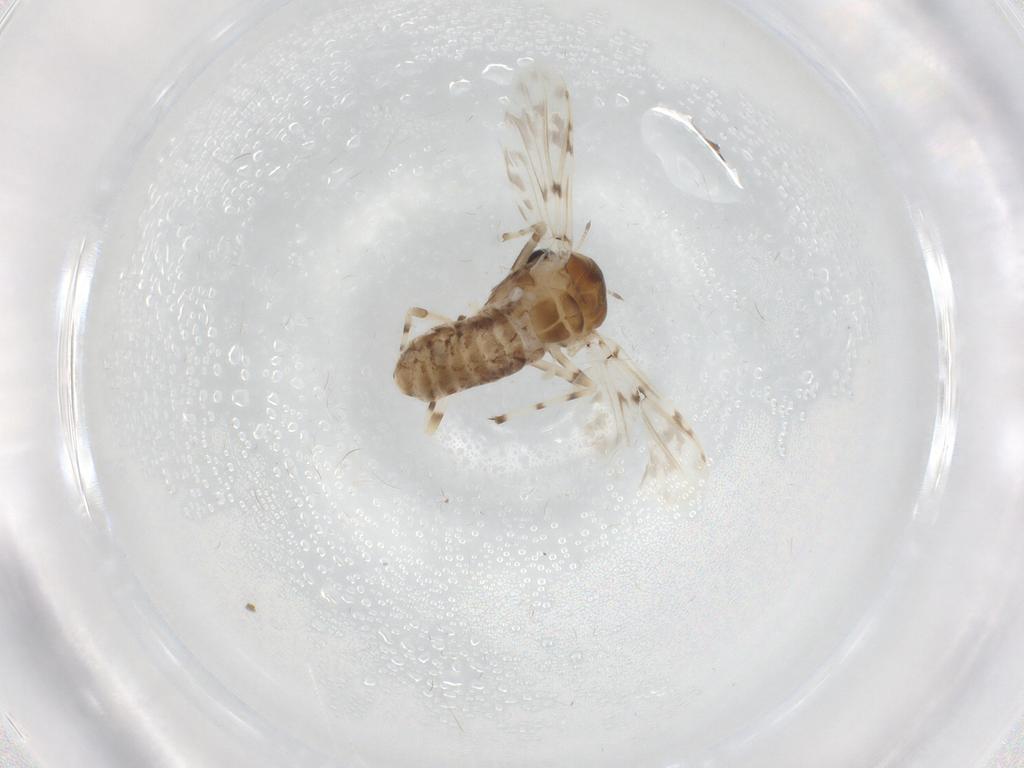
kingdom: Animalia
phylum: Arthropoda
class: Insecta
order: Diptera
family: Chironomidae
